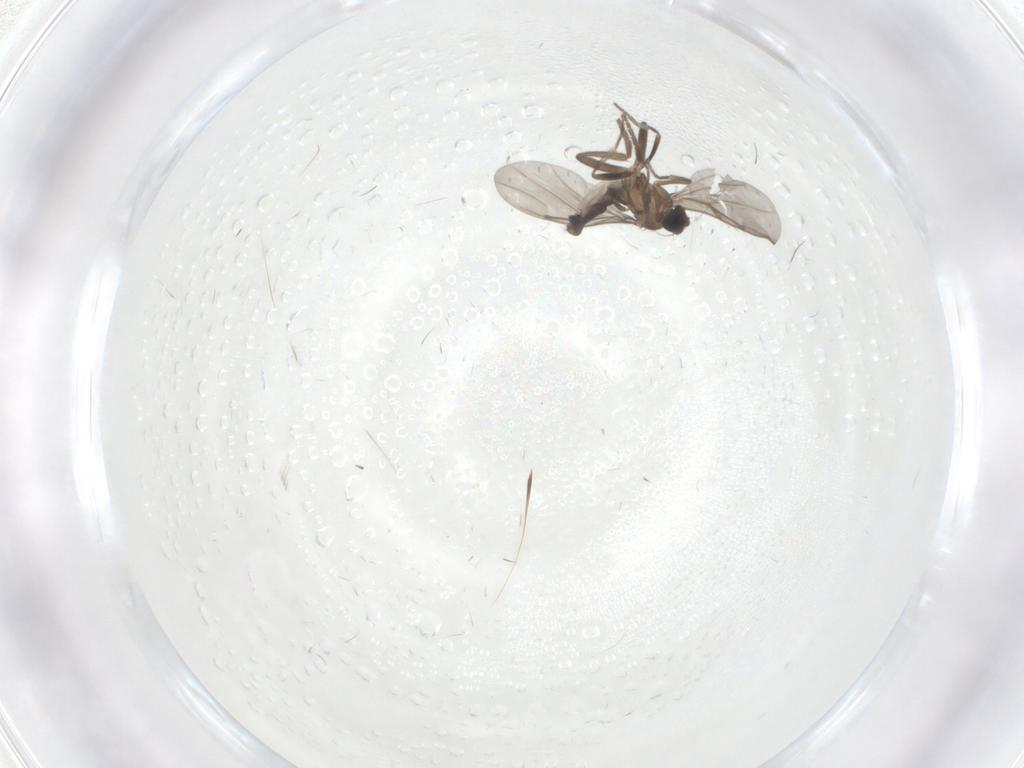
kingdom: Animalia
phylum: Arthropoda
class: Insecta
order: Diptera
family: Phoridae
